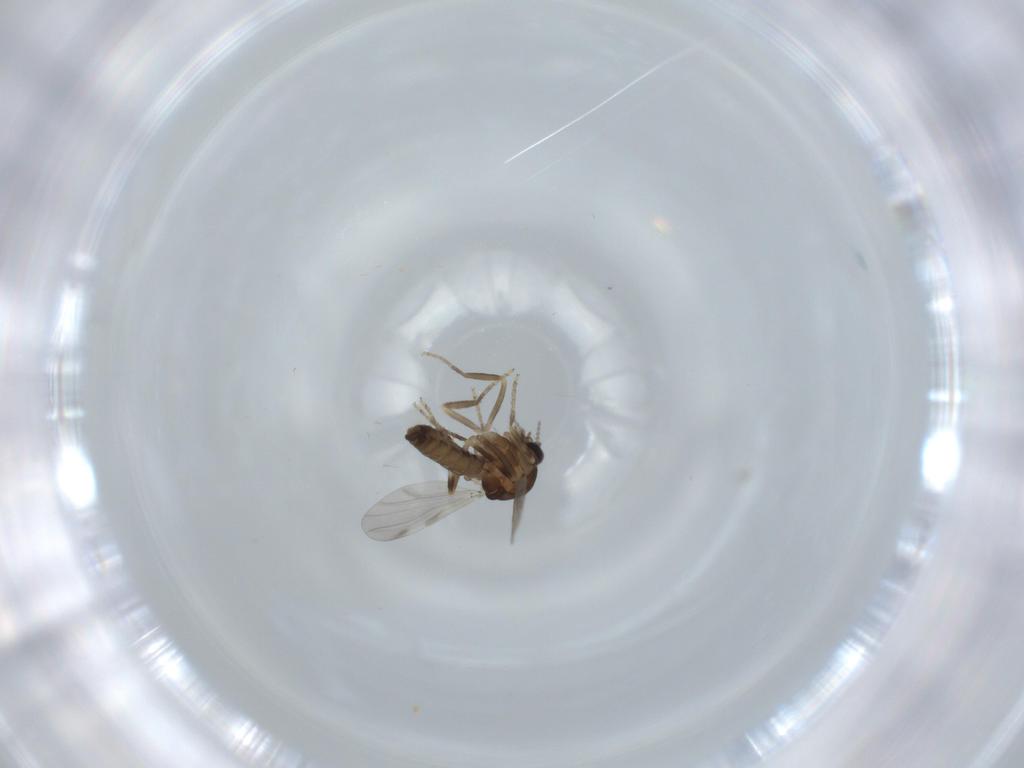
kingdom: Animalia
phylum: Arthropoda
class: Insecta
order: Diptera
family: Ceratopogonidae
